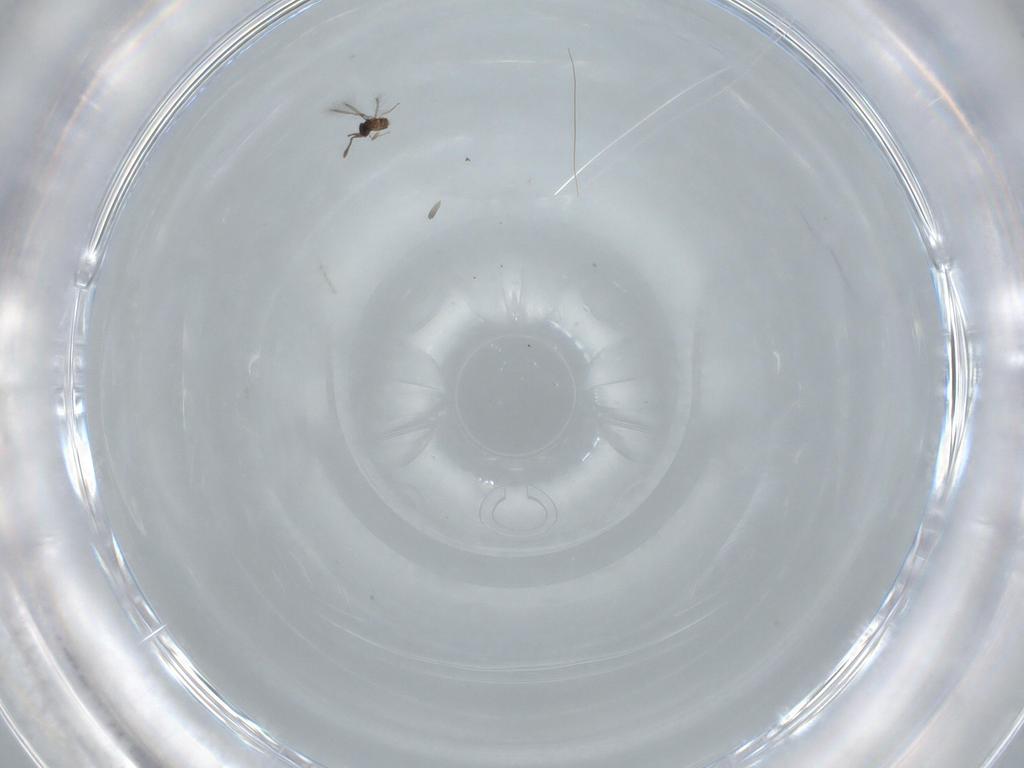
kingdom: Animalia
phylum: Arthropoda
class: Insecta
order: Hymenoptera
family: Mymaridae
